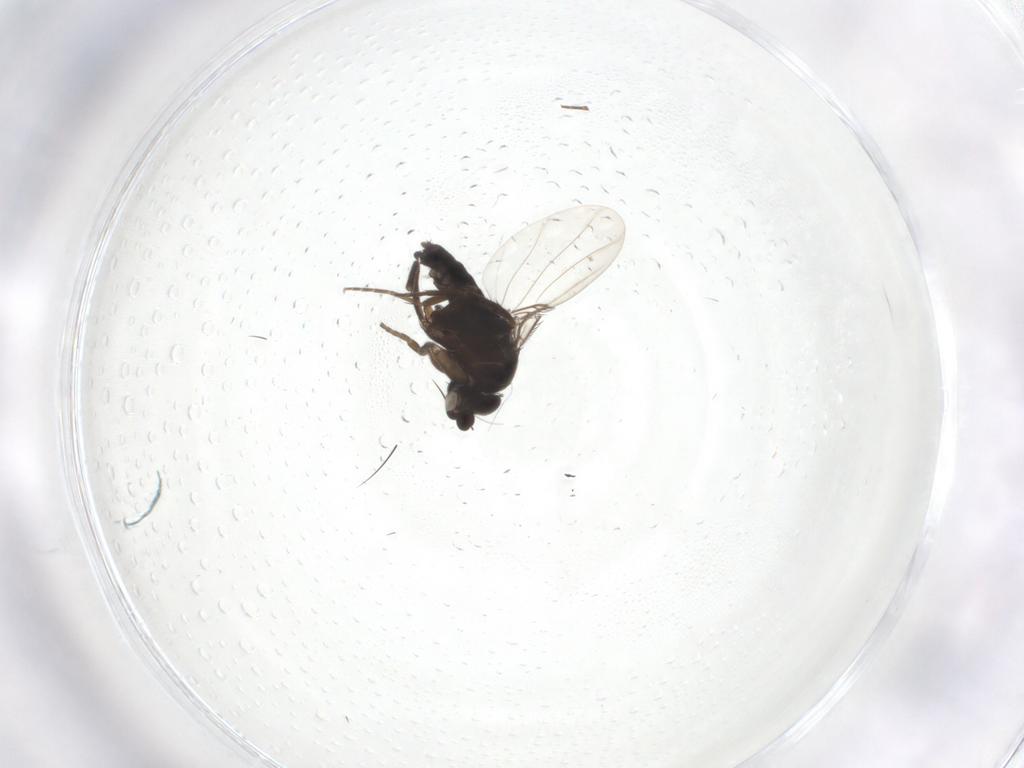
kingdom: Animalia
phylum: Arthropoda
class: Insecta
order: Diptera
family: Phoridae
